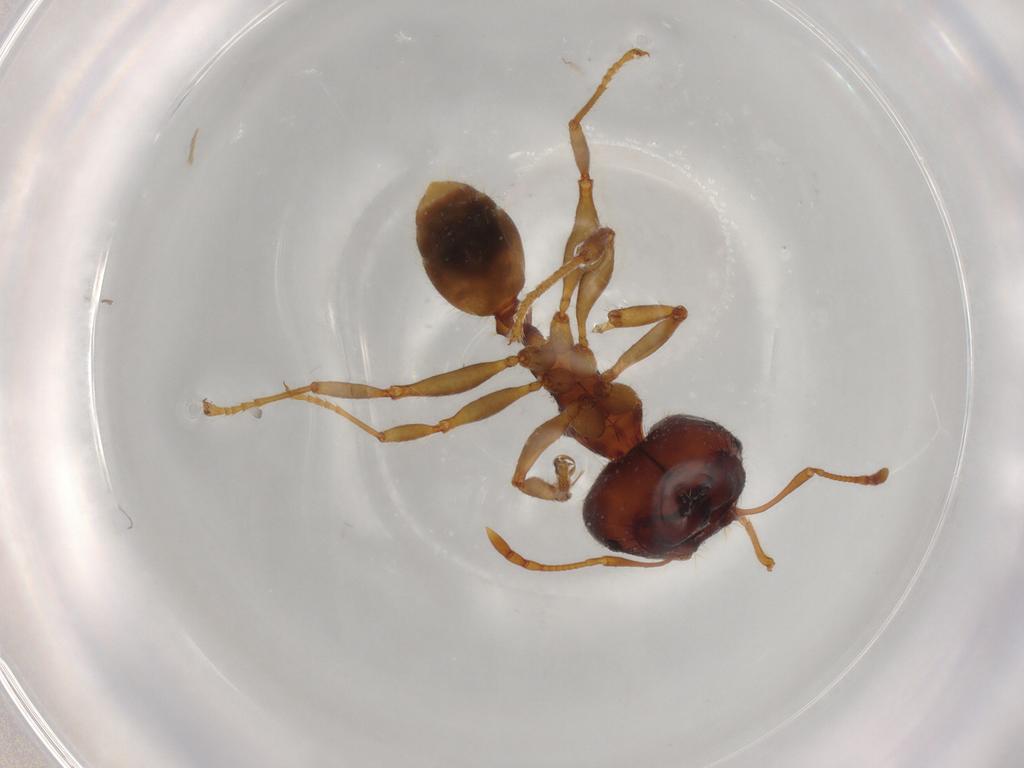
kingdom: Animalia
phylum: Arthropoda
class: Insecta
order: Hymenoptera
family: Formicidae
